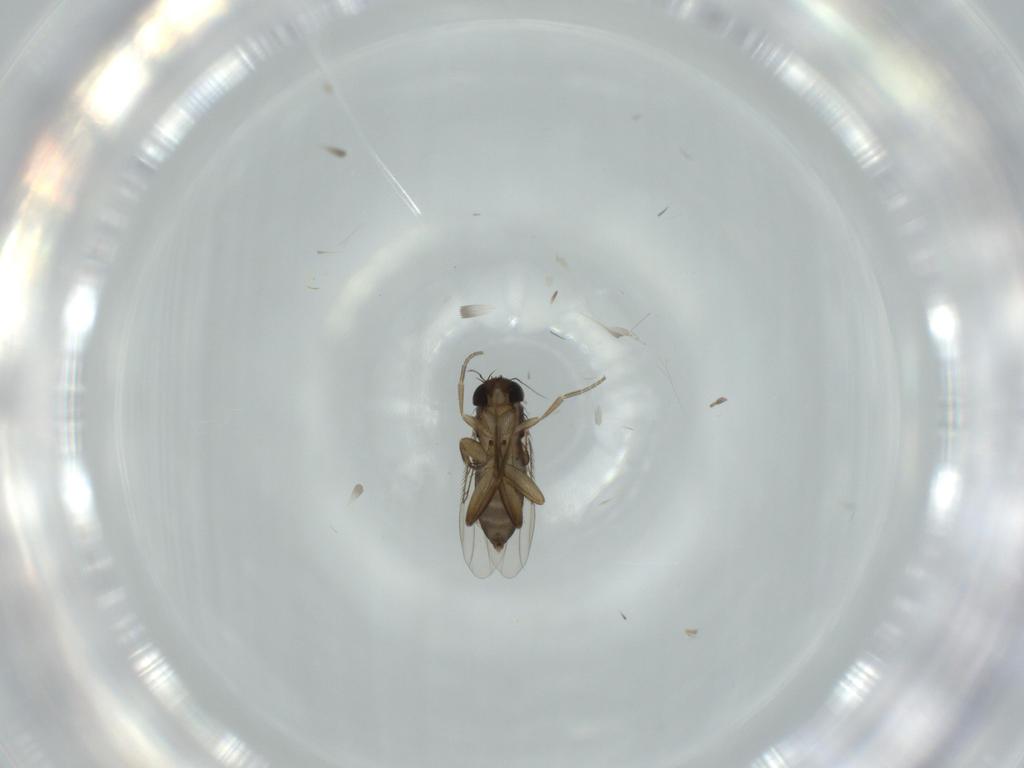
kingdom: Animalia
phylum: Arthropoda
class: Insecta
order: Diptera
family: Phoridae
